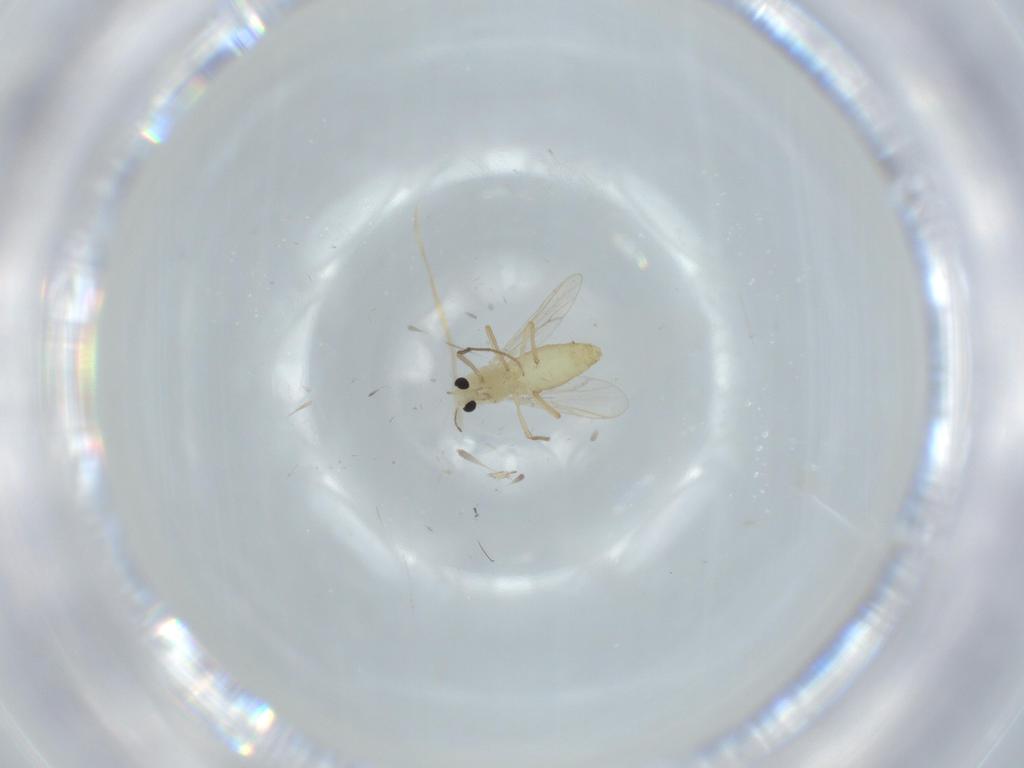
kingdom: Animalia
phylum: Arthropoda
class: Insecta
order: Diptera
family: Chironomidae
